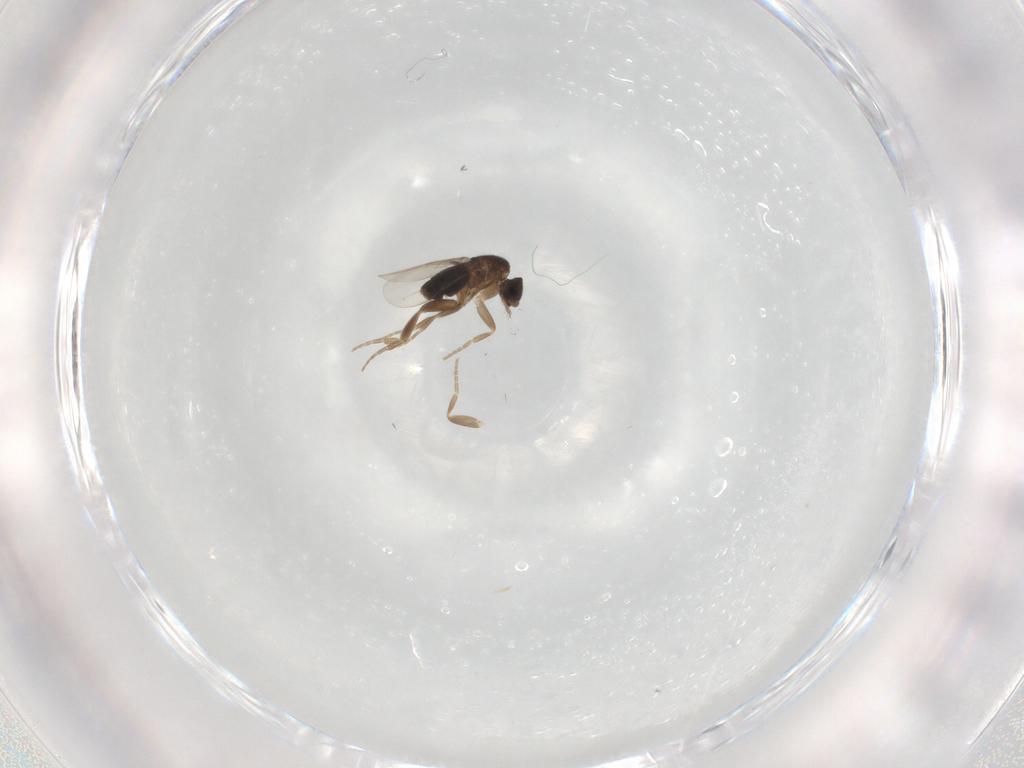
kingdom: Animalia
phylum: Arthropoda
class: Insecta
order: Diptera
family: Phoridae
